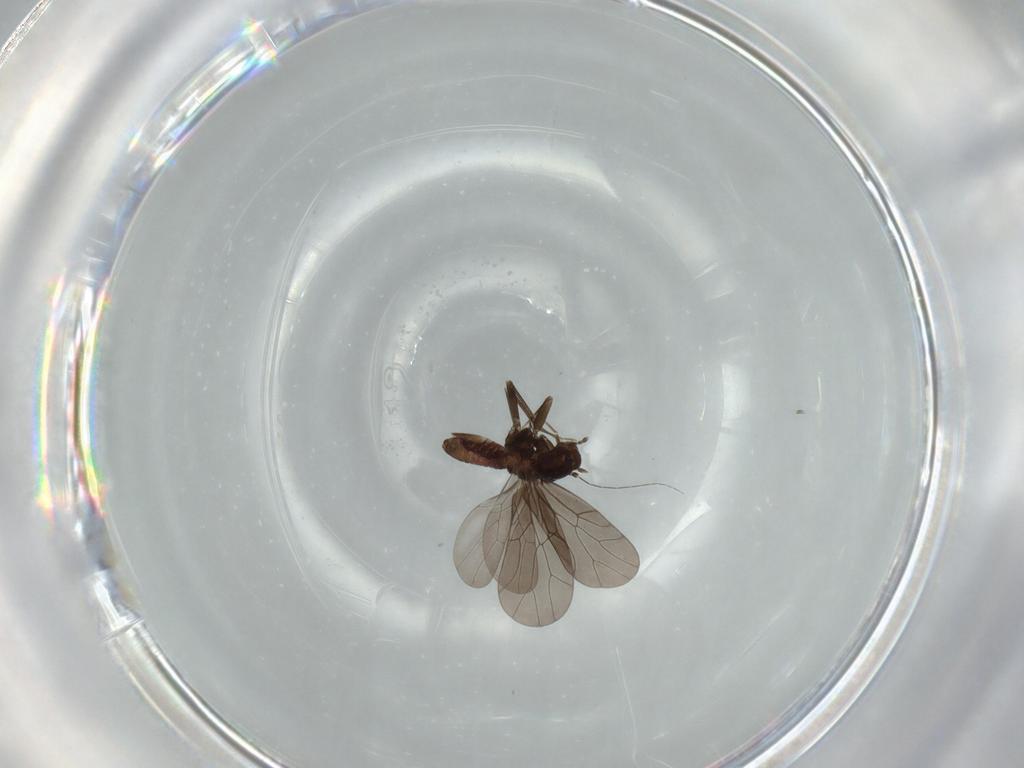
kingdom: Animalia
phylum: Arthropoda
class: Insecta
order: Psocodea
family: Lepidopsocidae
